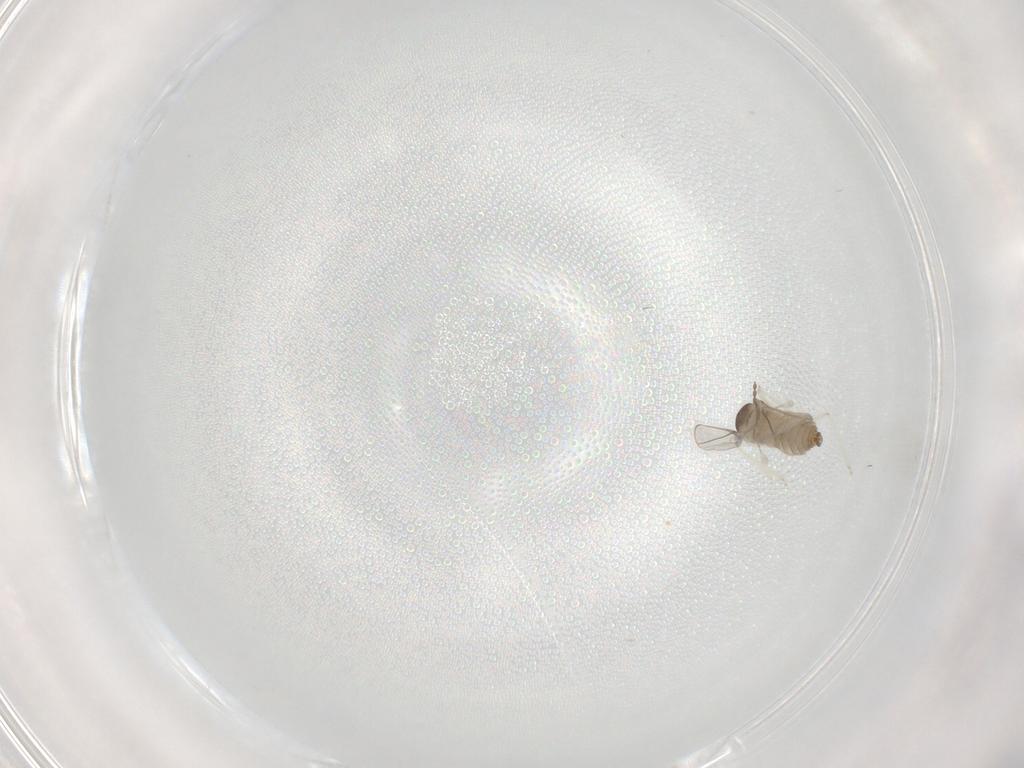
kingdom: Animalia
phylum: Arthropoda
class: Insecta
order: Diptera
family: Cecidomyiidae
